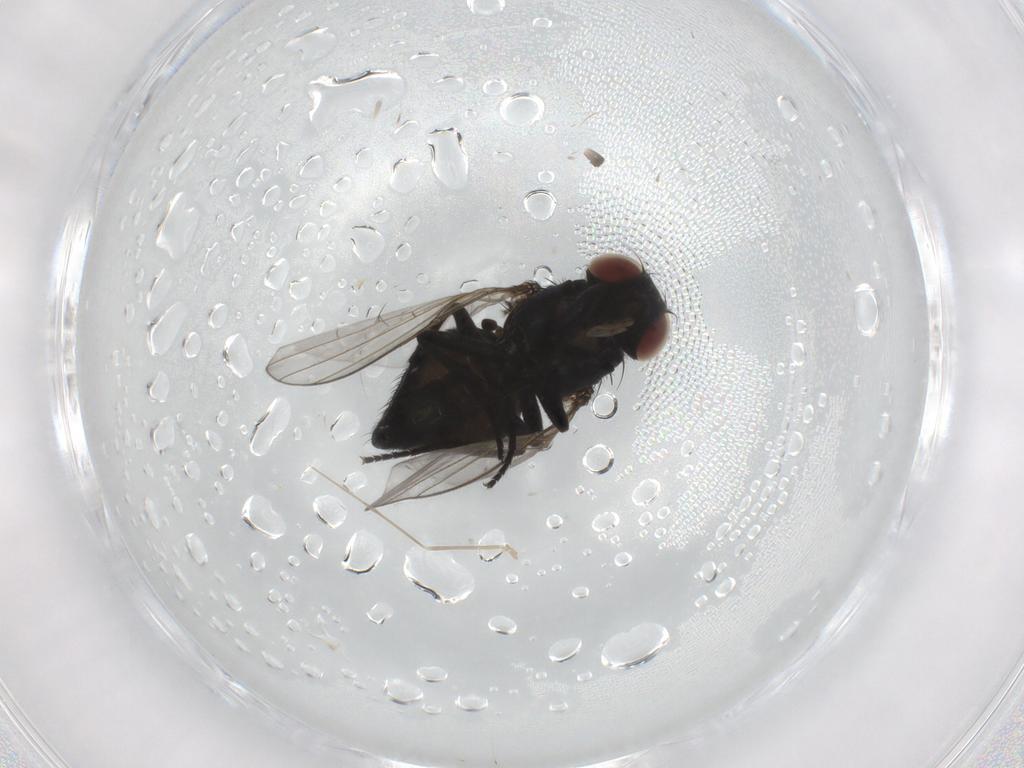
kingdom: Animalia
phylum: Arthropoda
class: Insecta
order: Diptera
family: Agromyzidae
